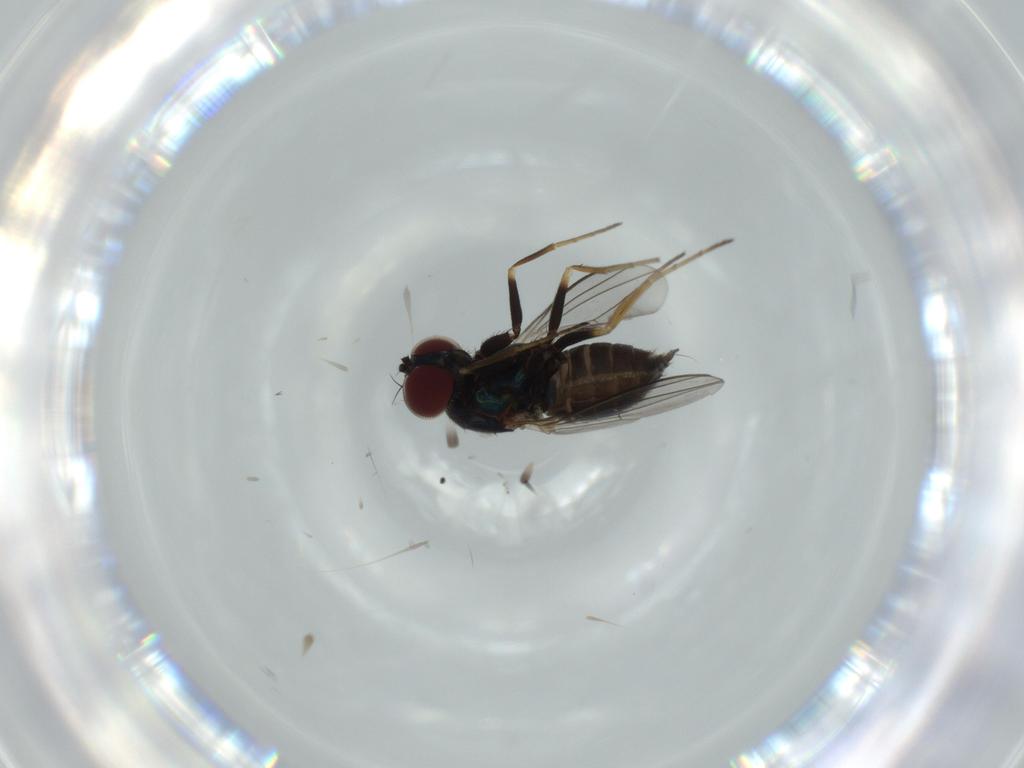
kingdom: Animalia
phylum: Arthropoda
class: Insecta
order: Diptera
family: Dolichopodidae
